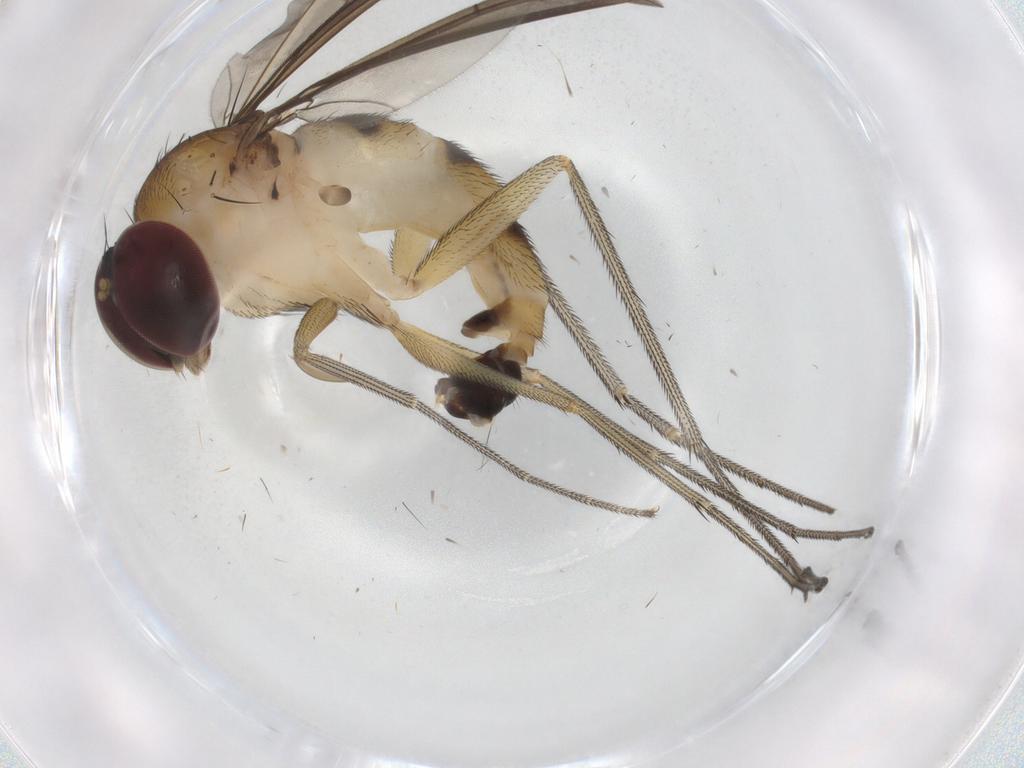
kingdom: Animalia
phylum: Arthropoda
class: Insecta
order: Diptera
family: Dolichopodidae
